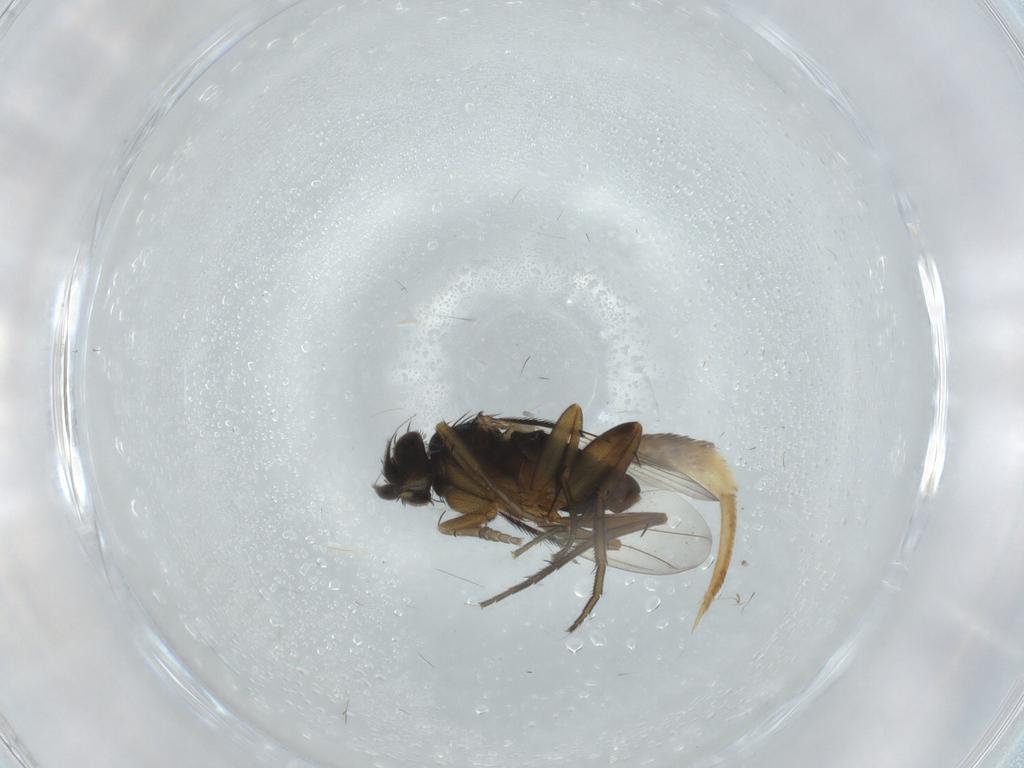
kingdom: Animalia
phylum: Arthropoda
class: Insecta
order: Diptera
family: Phoridae
